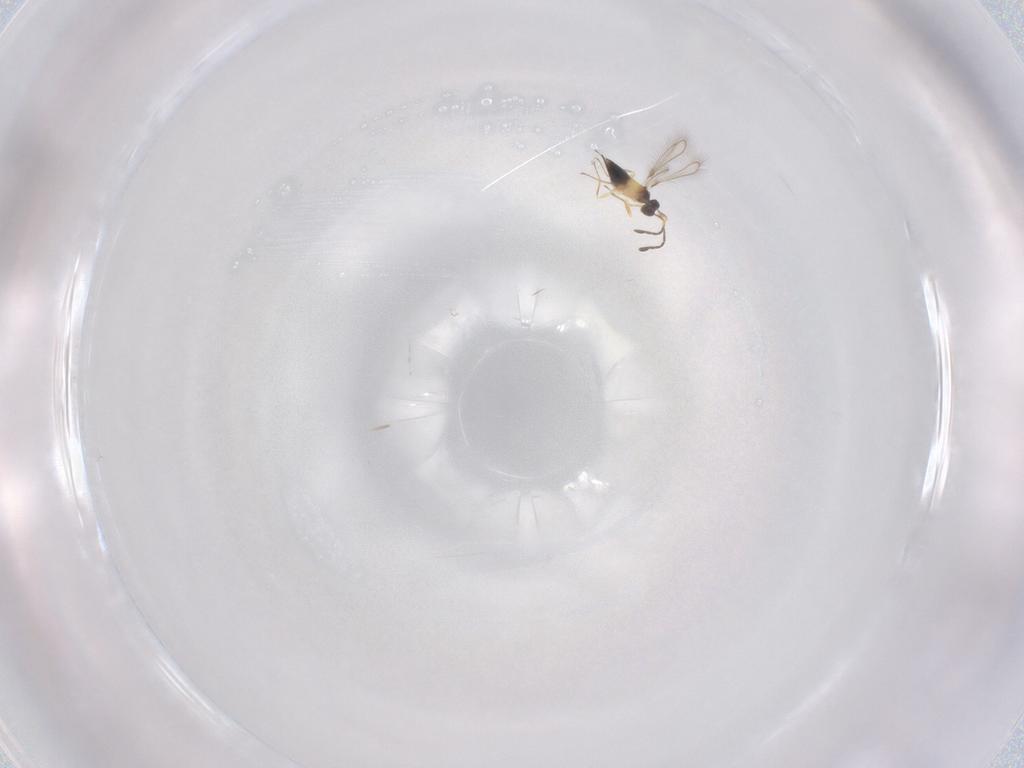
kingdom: Animalia
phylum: Arthropoda
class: Insecta
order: Hymenoptera
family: Mymaridae
